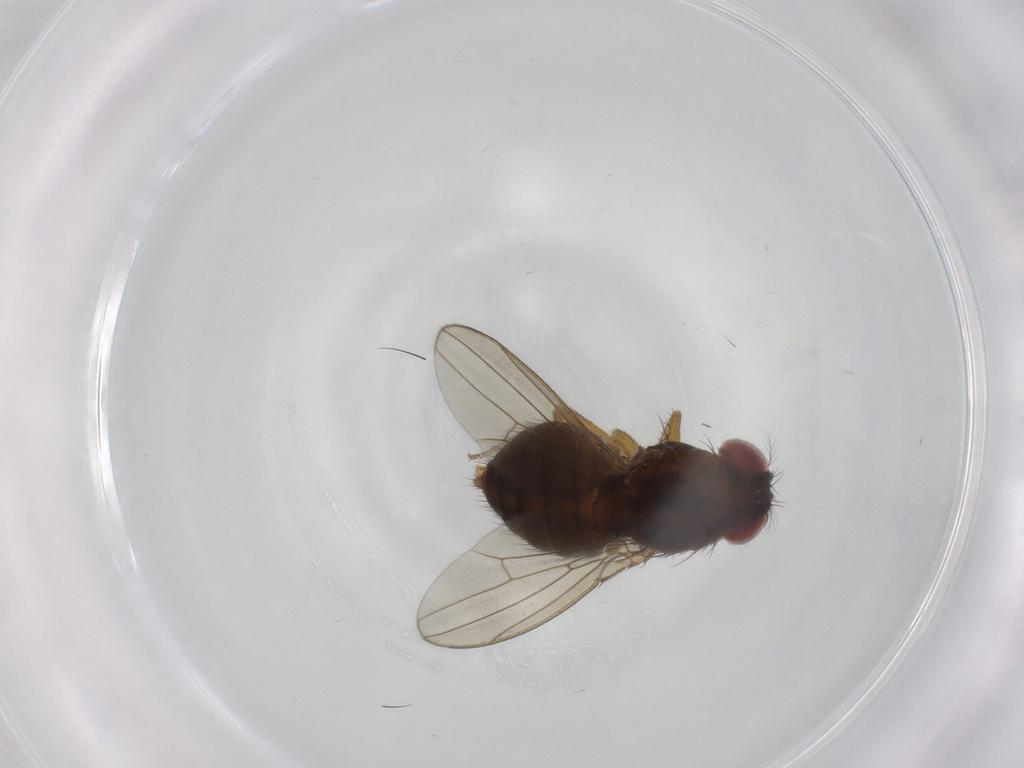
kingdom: Animalia
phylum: Arthropoda
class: Insecta
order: Diptera
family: Drosophilidae
